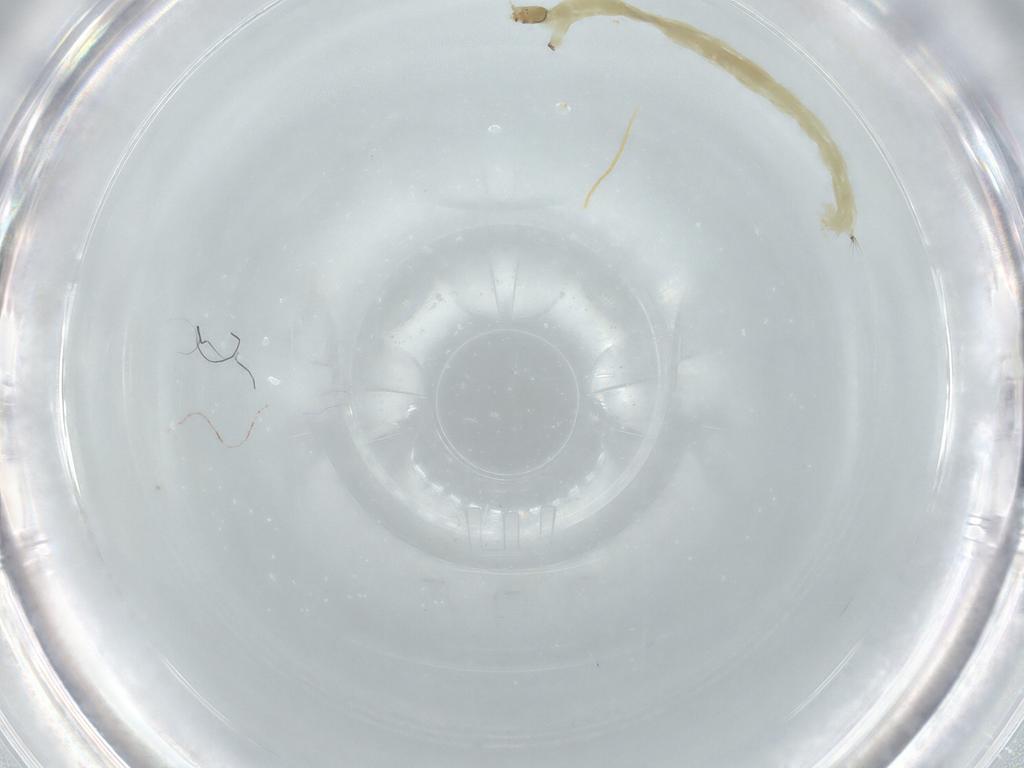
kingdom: Animalia
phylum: Arthropoda
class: Insecta
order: Diptera
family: Chironomidae
